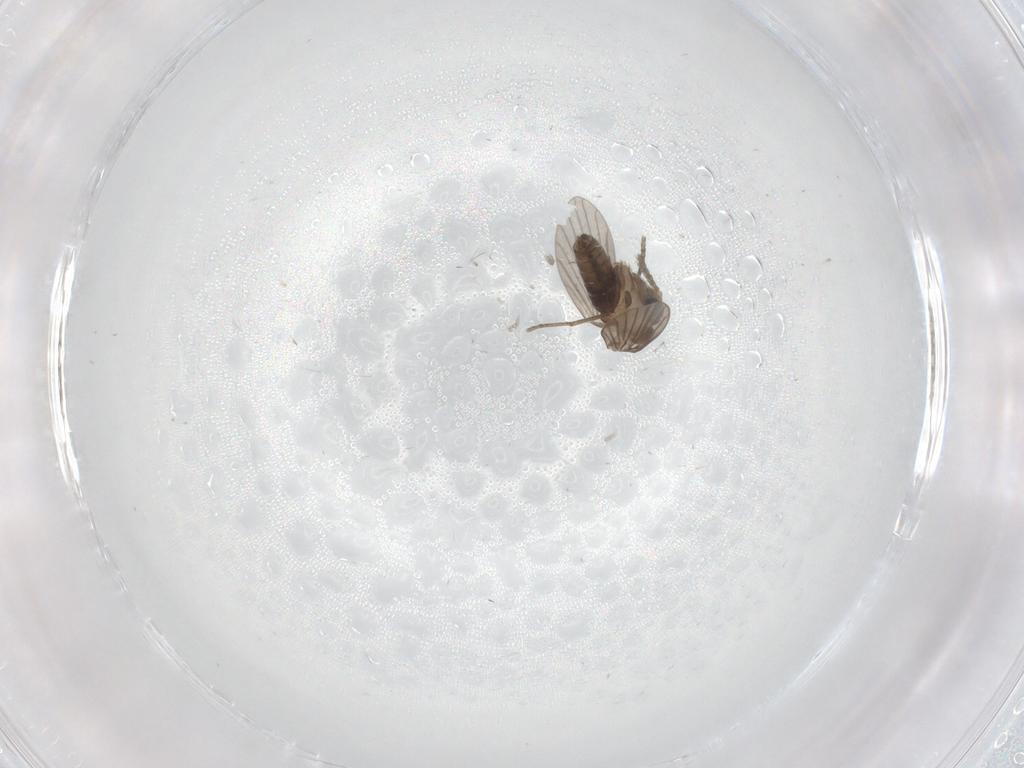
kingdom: Animalia
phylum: Arthropoda
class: Insecta
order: Diptera
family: Psychodidae
